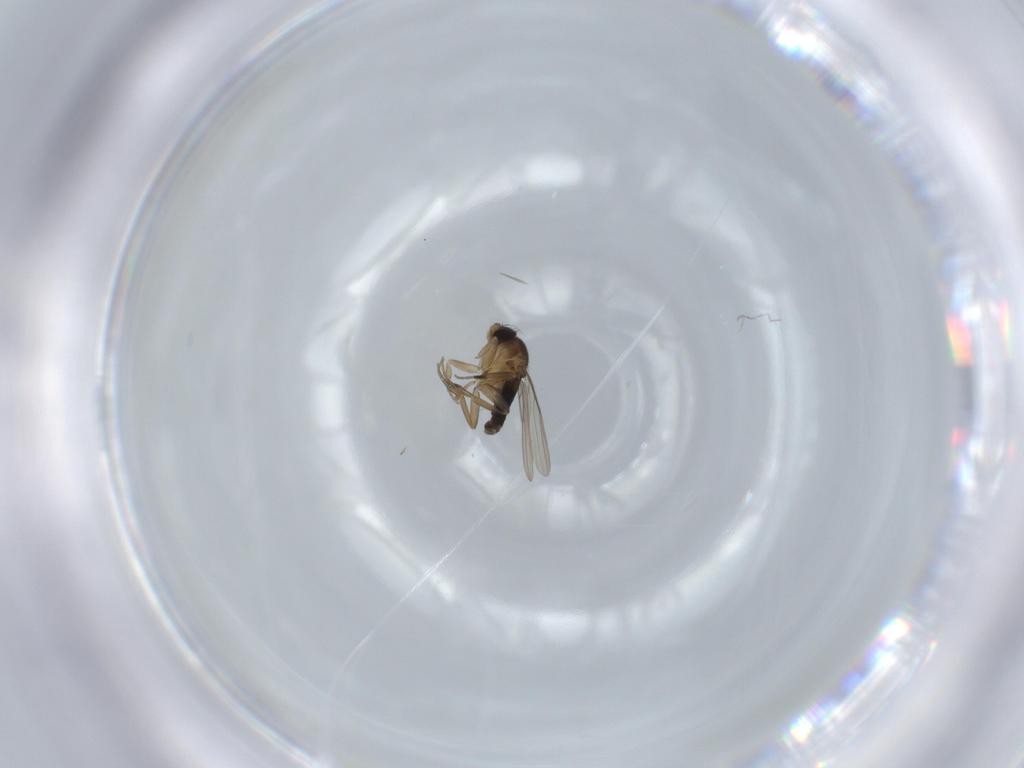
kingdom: Animalia
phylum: Arthropoda
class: Insecta
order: Diptera
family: Phoridae
